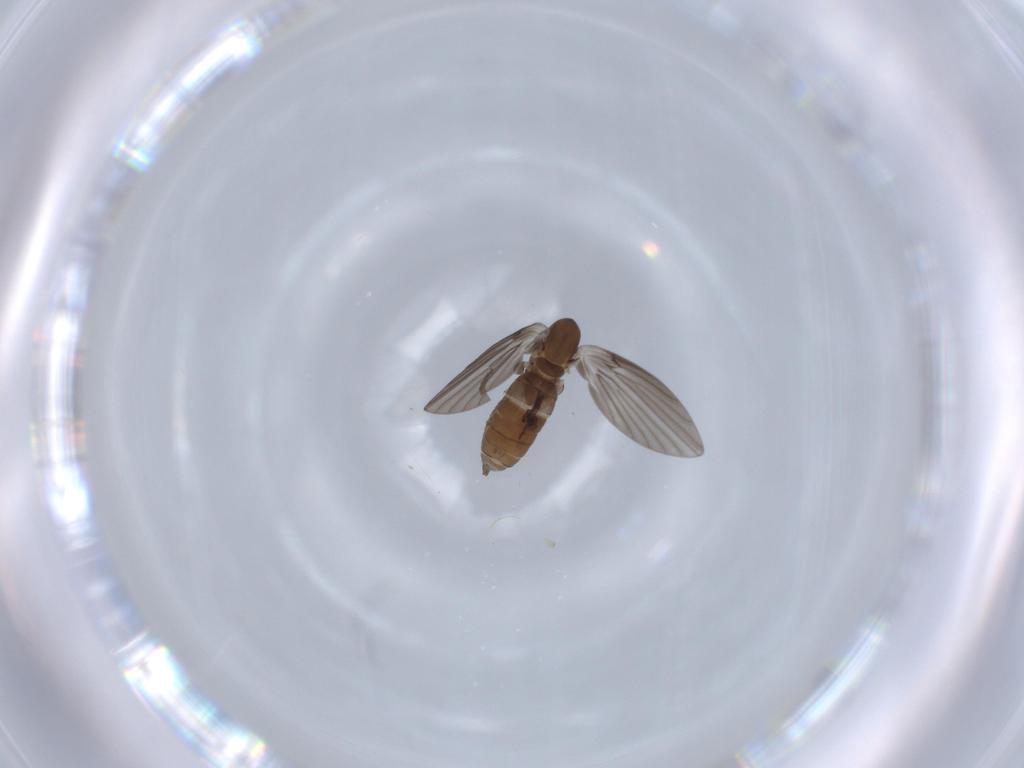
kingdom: Animalia
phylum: Arthropoda
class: Insecta
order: Diptera
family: Psychodidae
